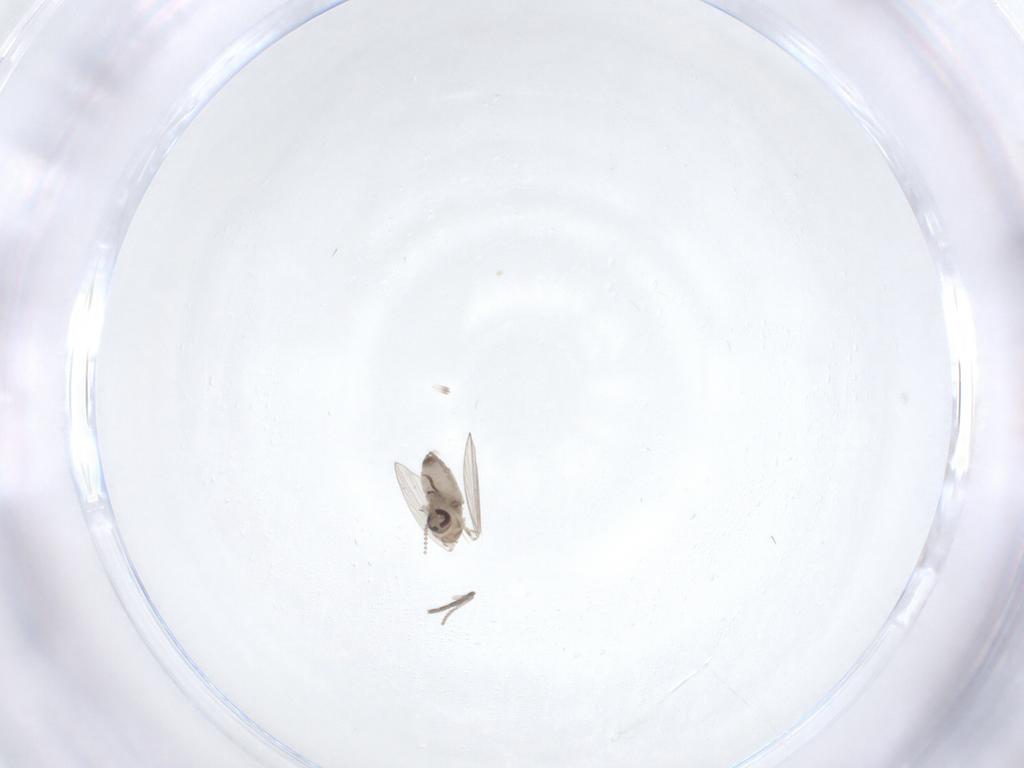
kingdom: Animalia
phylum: Arthropoda
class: Insecta
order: Diptera
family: Psychodidae
